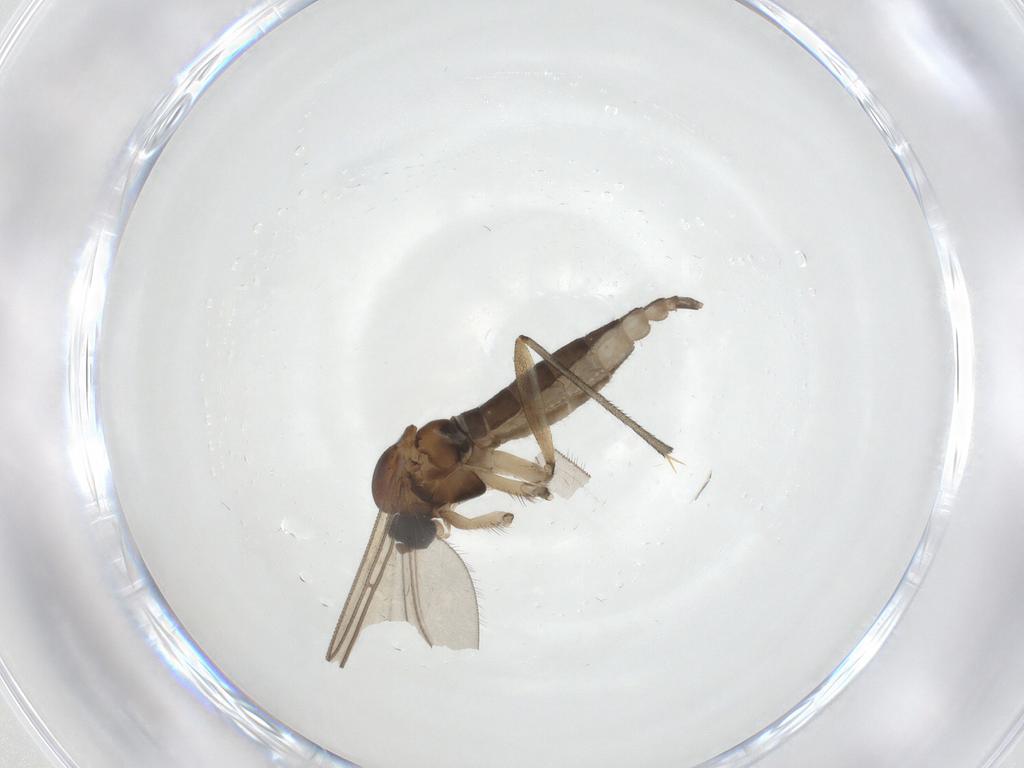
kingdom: Animalia
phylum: Arthropoda
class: Insecta
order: Diptera
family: Sciaridae
